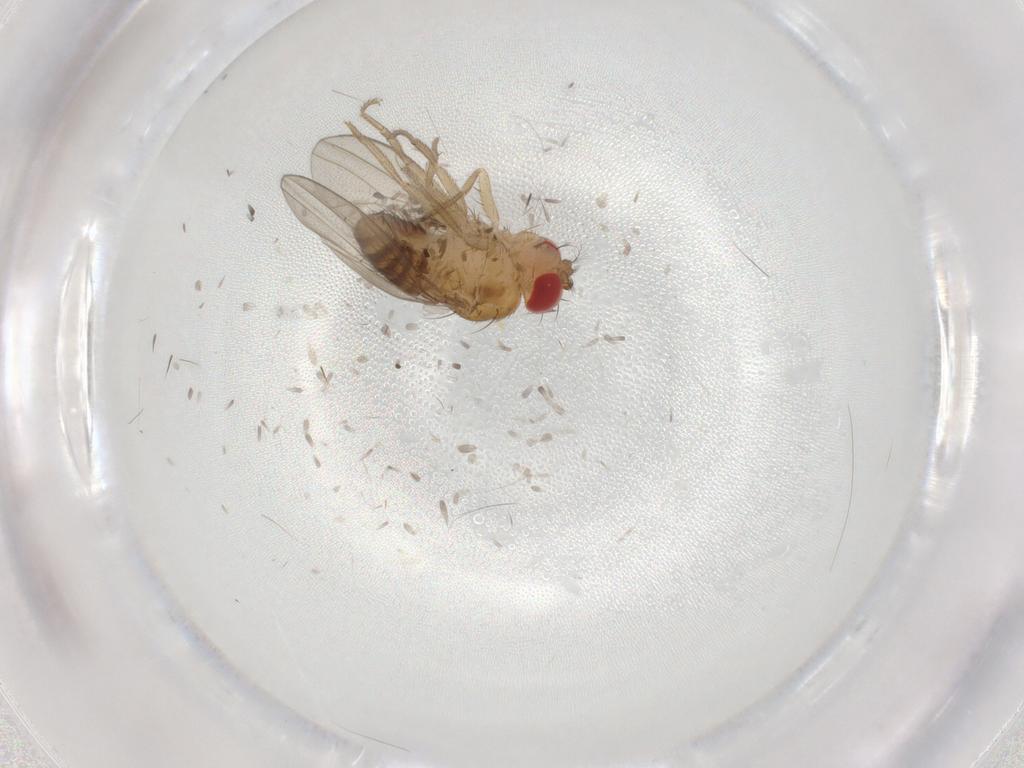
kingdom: Animalia
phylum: Arthropoda
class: Insecta
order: Diptera
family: Drosophilidae
